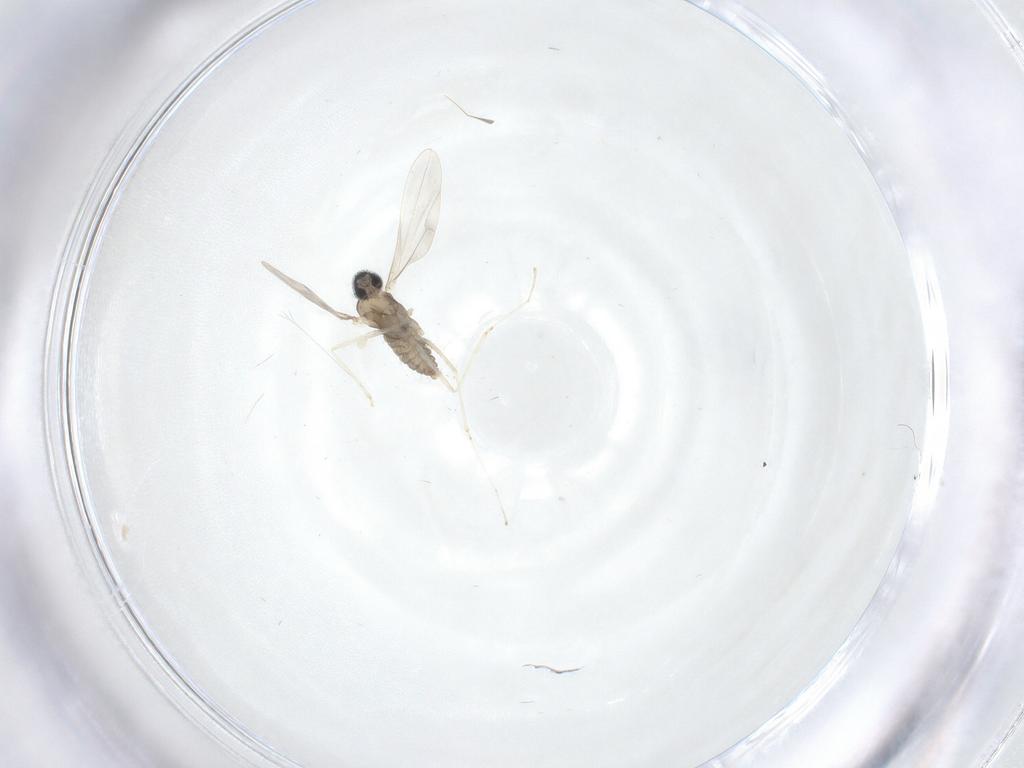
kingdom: Animalia
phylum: Arthropoda
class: Insecta
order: Diptera
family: Cecidomyiidae
